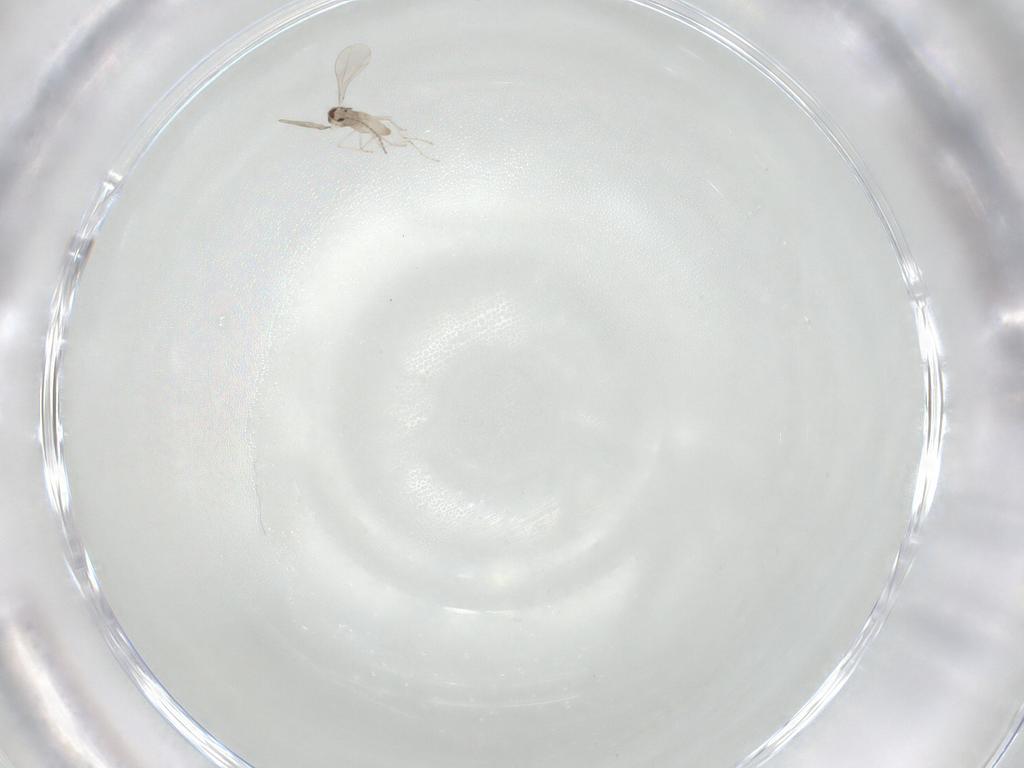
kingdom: Animalia
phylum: Arthropoda
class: Insecta
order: Diptera
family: Cecidomyiidae
